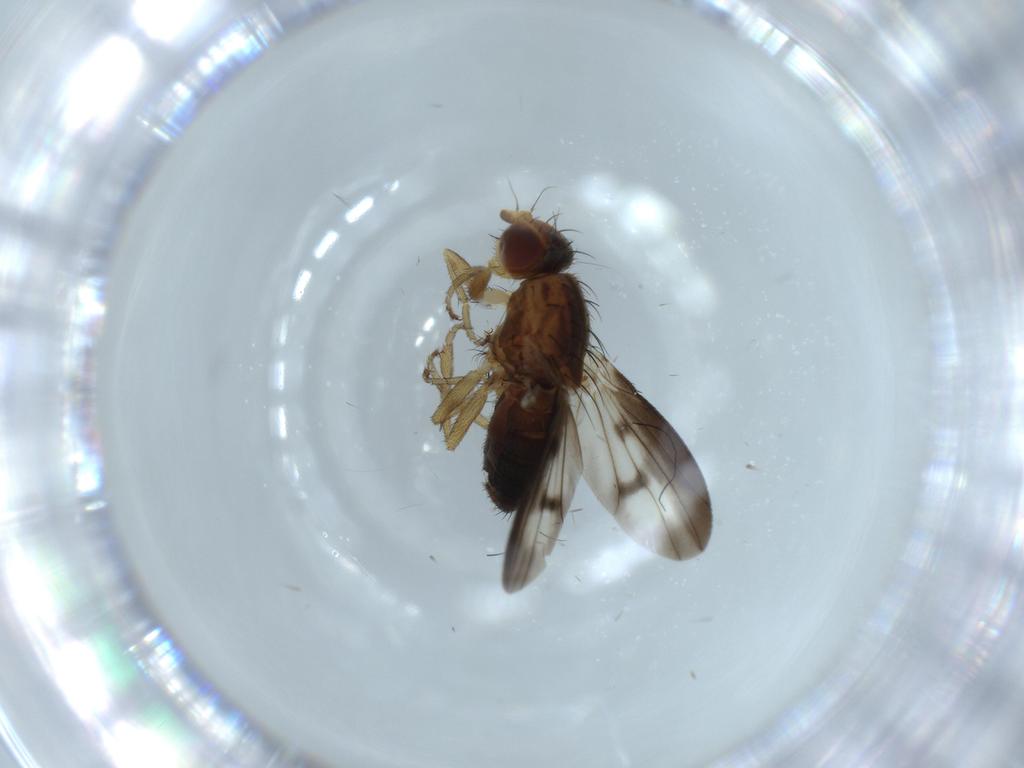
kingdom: Animalia
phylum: Arthropoda
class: Insecta
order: Diptera
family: Heleomyzidae
